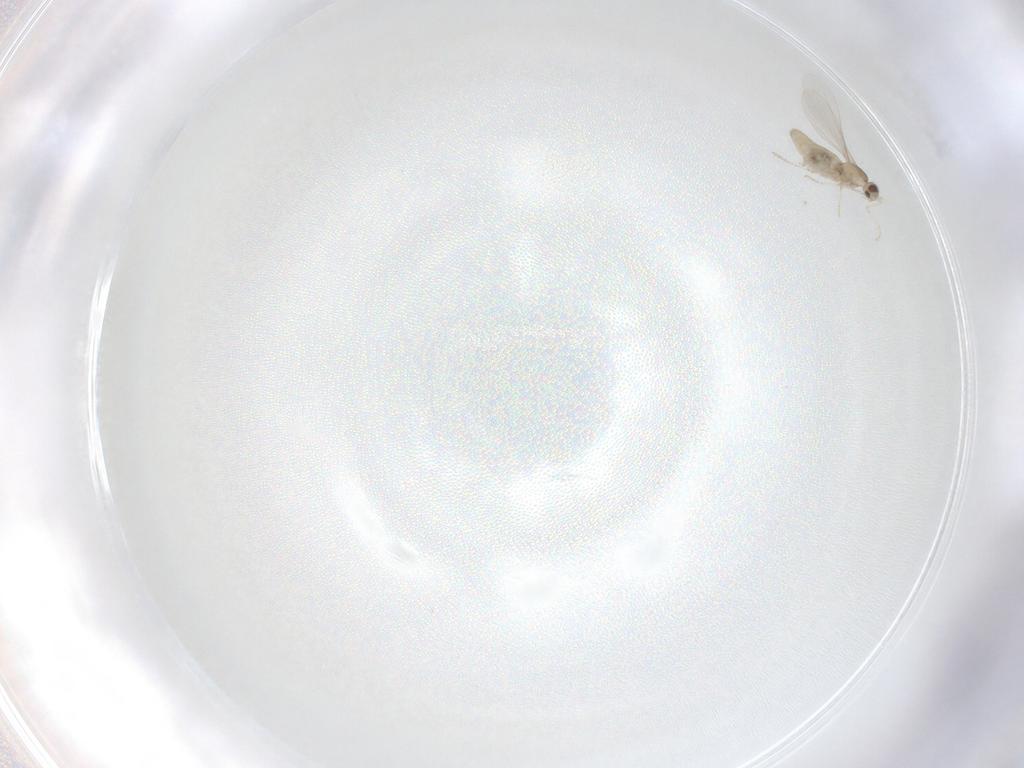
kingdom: Animalia
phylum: Arthropoda
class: Insecta
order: Diptera
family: Cecidomyiidae
